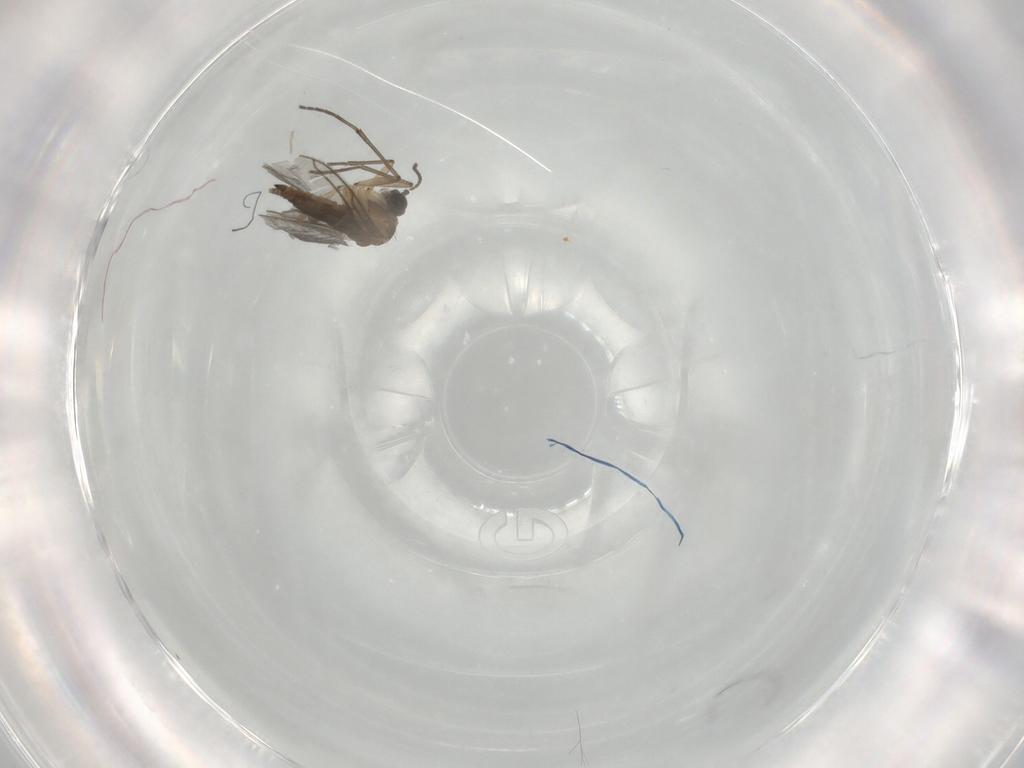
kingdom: Animalia
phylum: Arthropoda
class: Insecta
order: Diptera
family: Sciaridae
